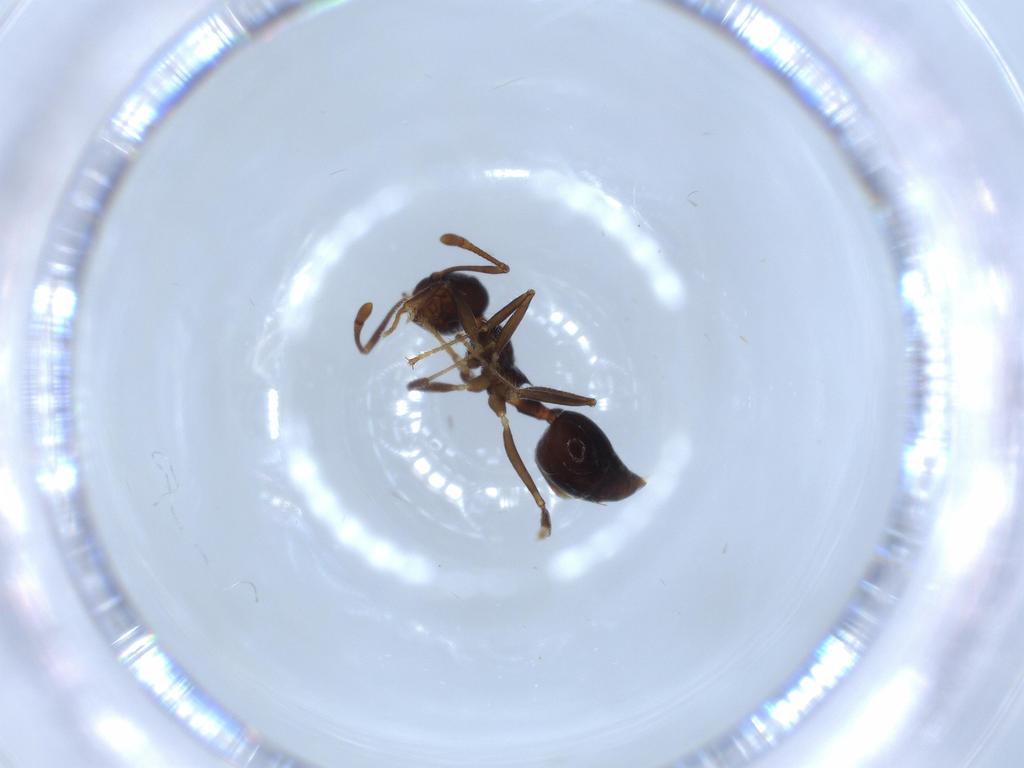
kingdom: Animalia
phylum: Arthropoda
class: Insecta
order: Hymenoptera
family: Formicidae
